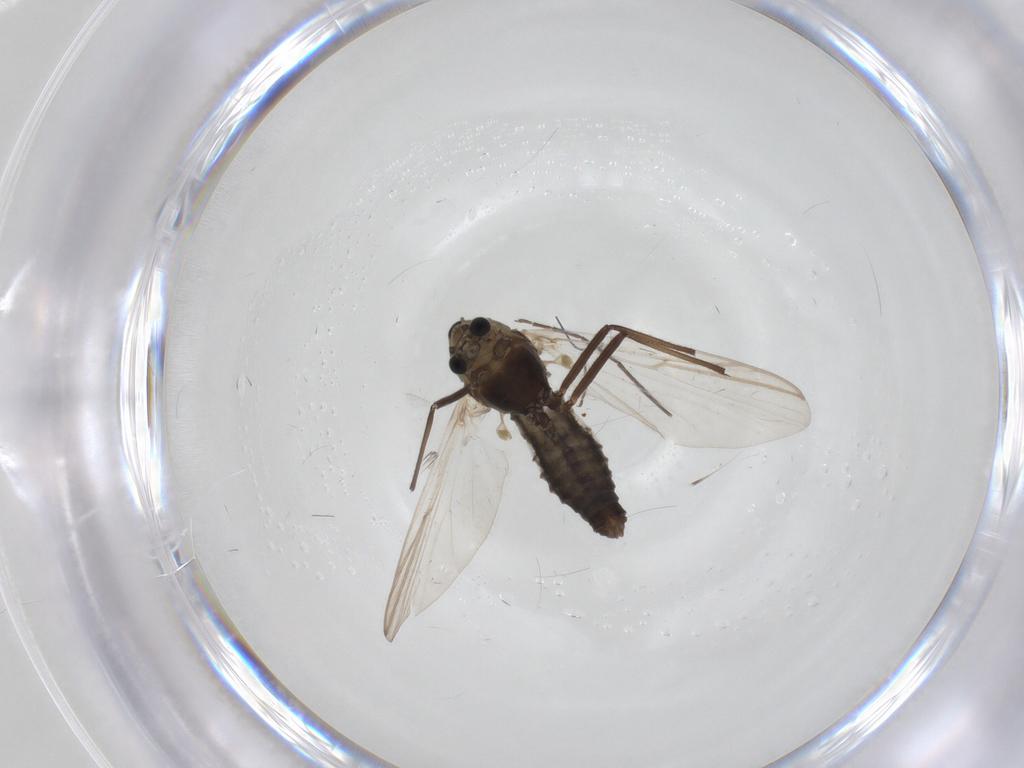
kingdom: Animalia
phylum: Arthropoda
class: Insecta
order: Diptera
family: Chironomidae
